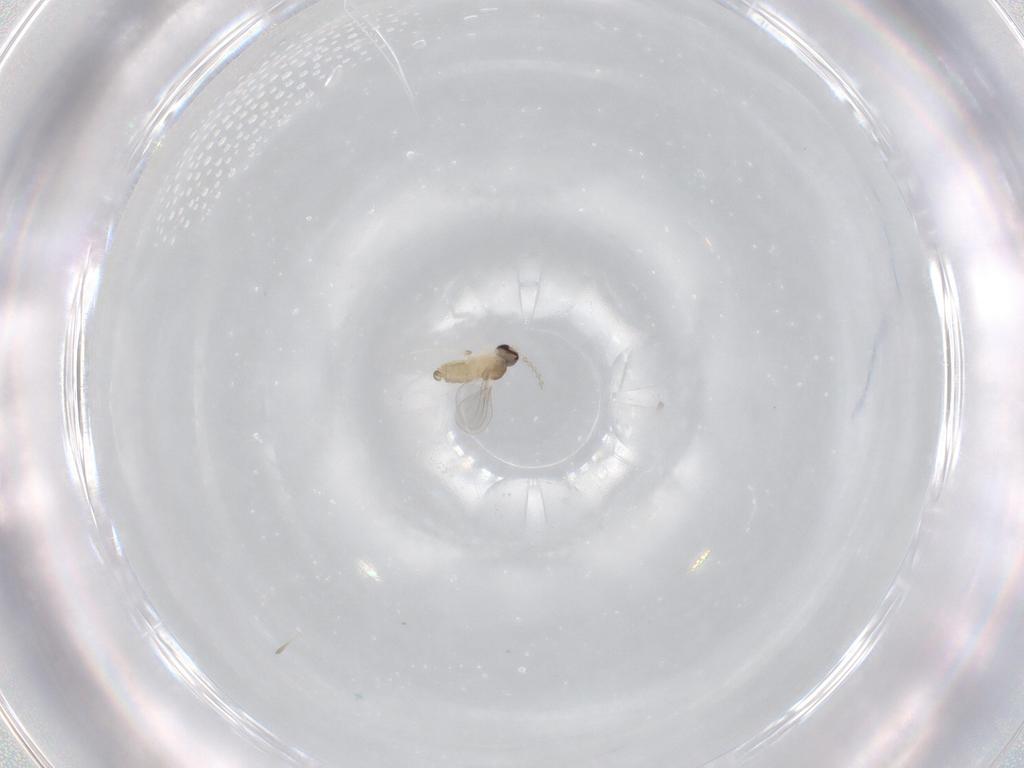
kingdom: Animalia
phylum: Arthropoda
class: Insecta
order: Diptera
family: Cecidomyiidae
